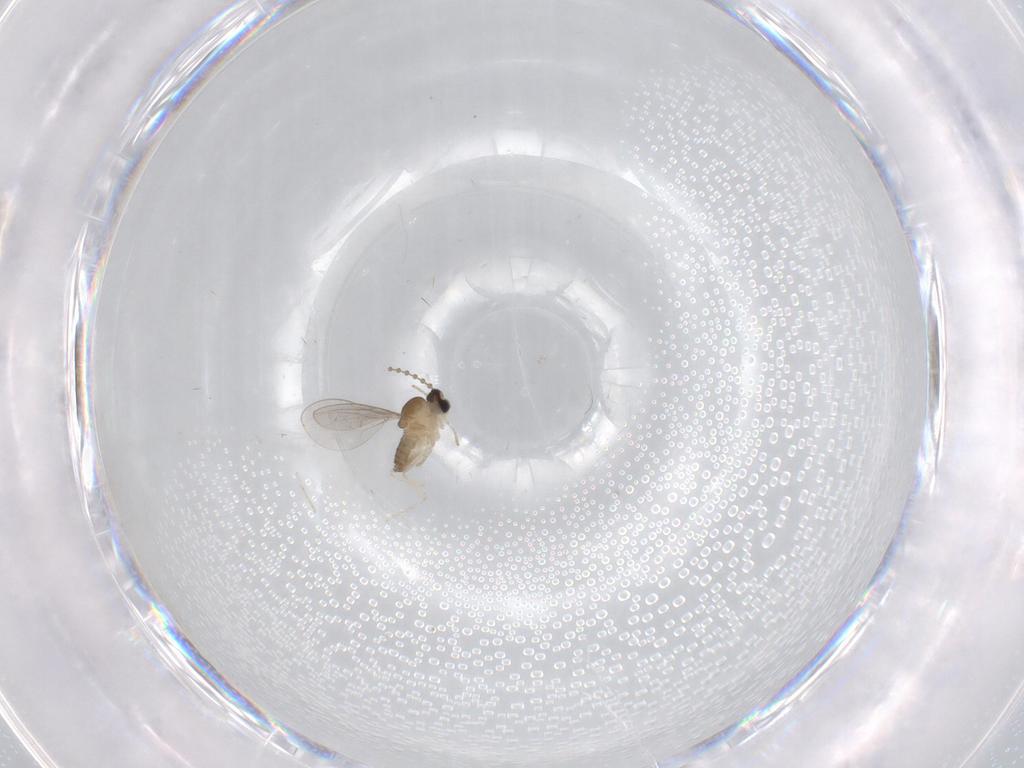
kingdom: Animalia
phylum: Arthropoda
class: Insecta
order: Diptera
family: Cecidomyiidae
